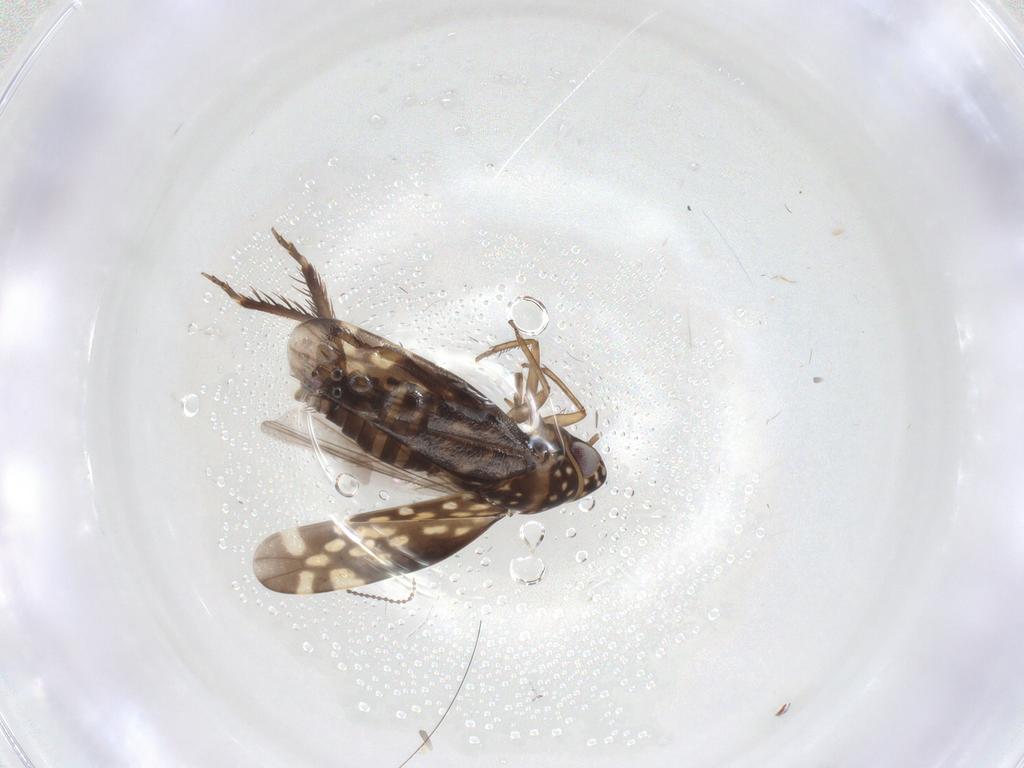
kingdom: Animalia
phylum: Arthropoda
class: Insecta
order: Hemiptera
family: Cicadellidae
